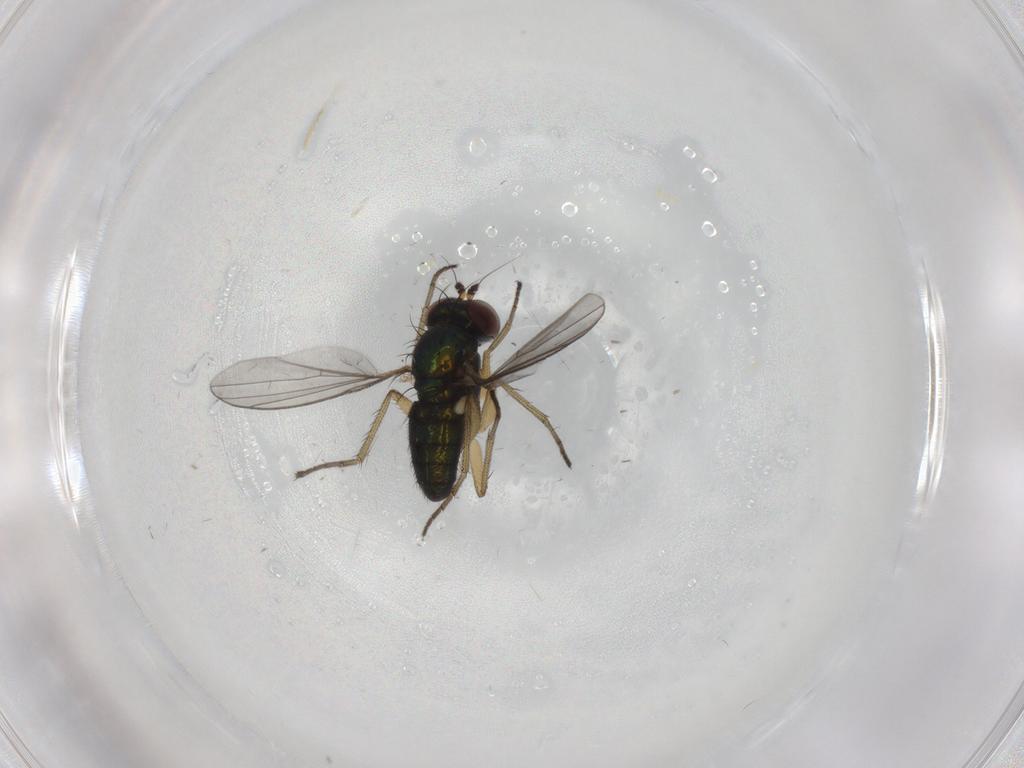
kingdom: Animalia
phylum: Arthropoda
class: Insecta
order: Diptera
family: Dolichopodidae
